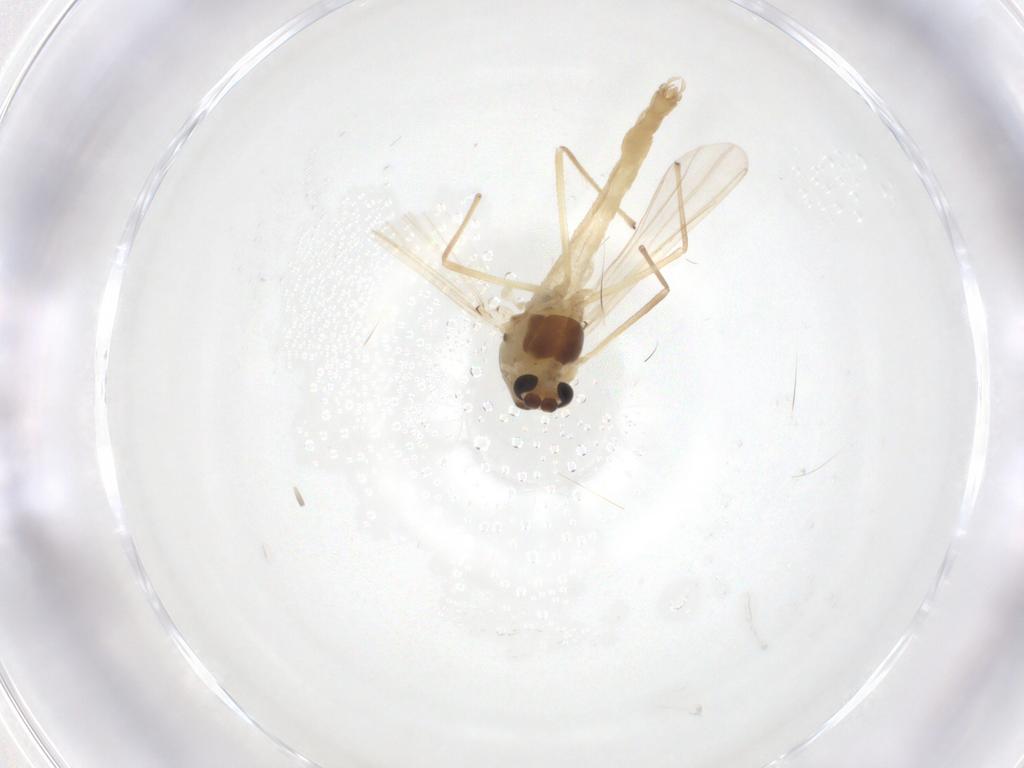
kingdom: Animalia
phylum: Arthropoda
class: Insecta
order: Diptera
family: Chironomidae
